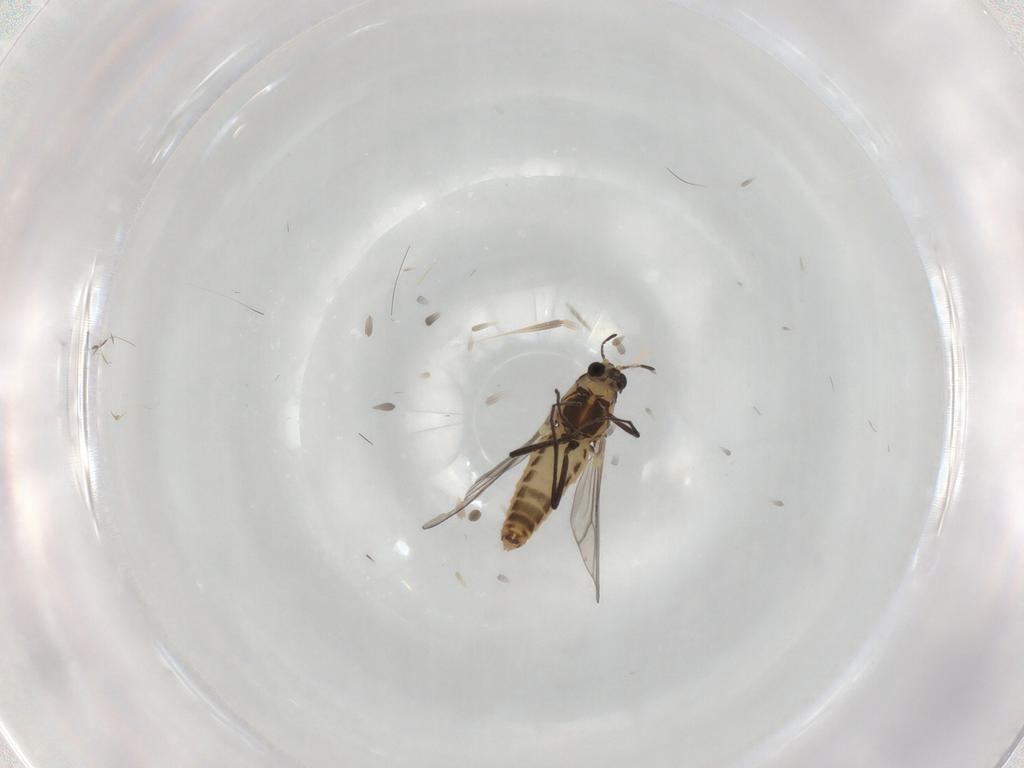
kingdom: Animalia
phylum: Arthropoda
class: Insecta
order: Diptera
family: Chironomidae
